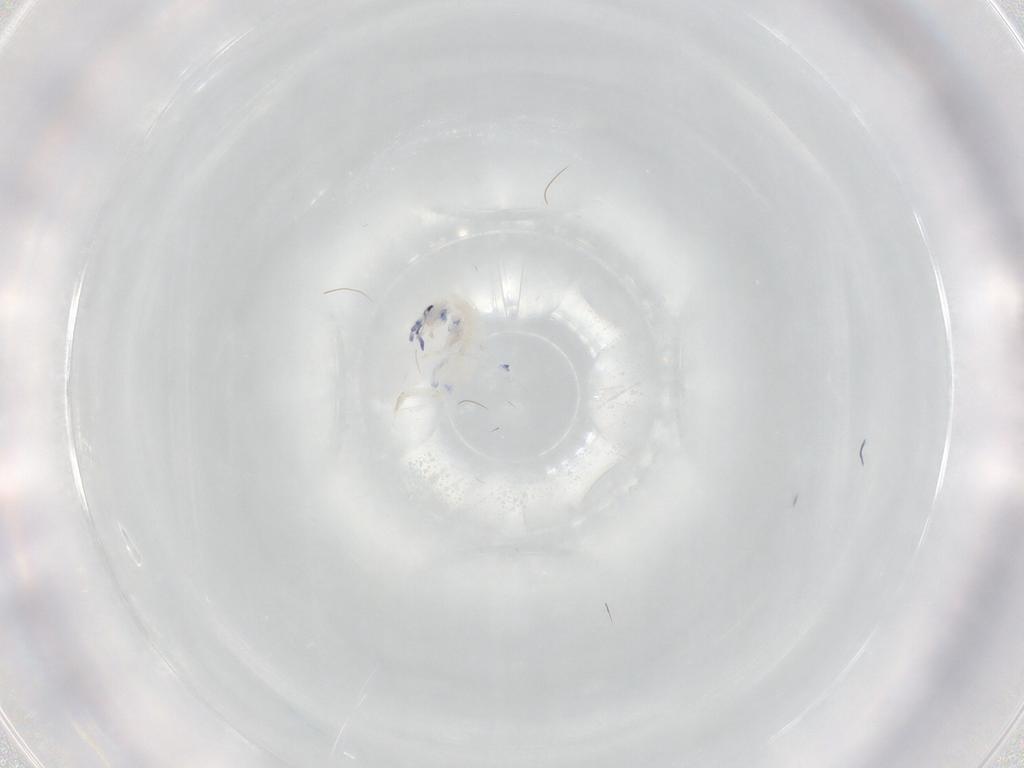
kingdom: Animalia
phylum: Arthropoda
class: Collembola
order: Entomobryomorpha
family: Entomobryidae
